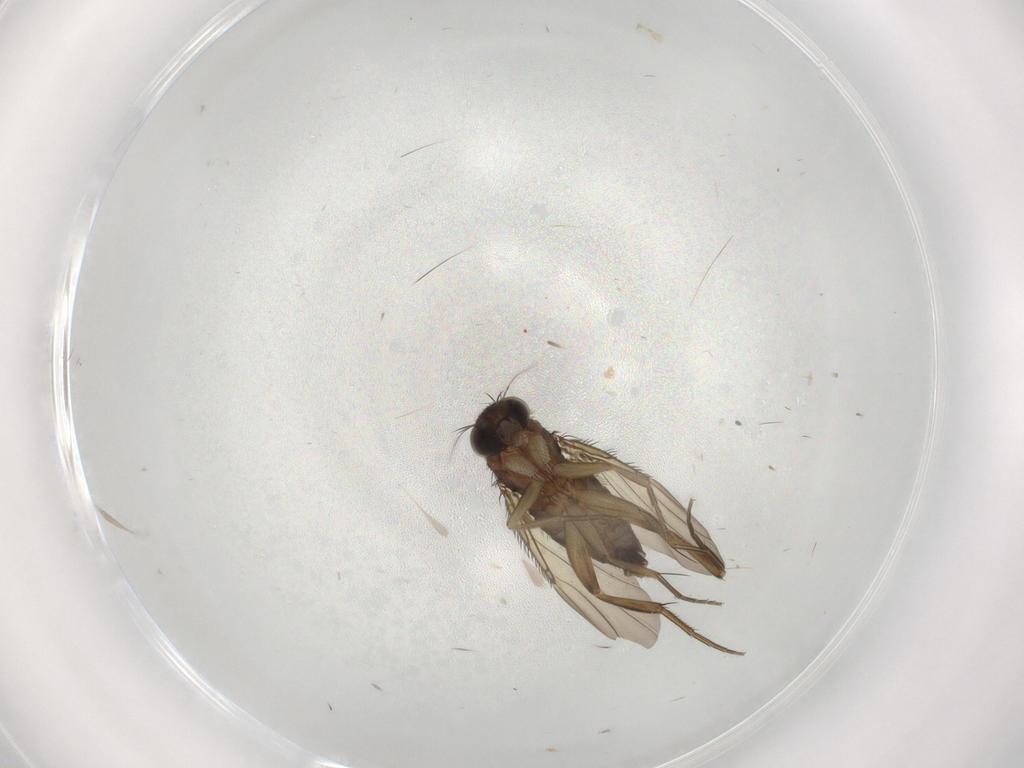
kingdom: Animalia
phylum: Arthropoda
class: Insecta
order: Diptera
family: Phoridae
